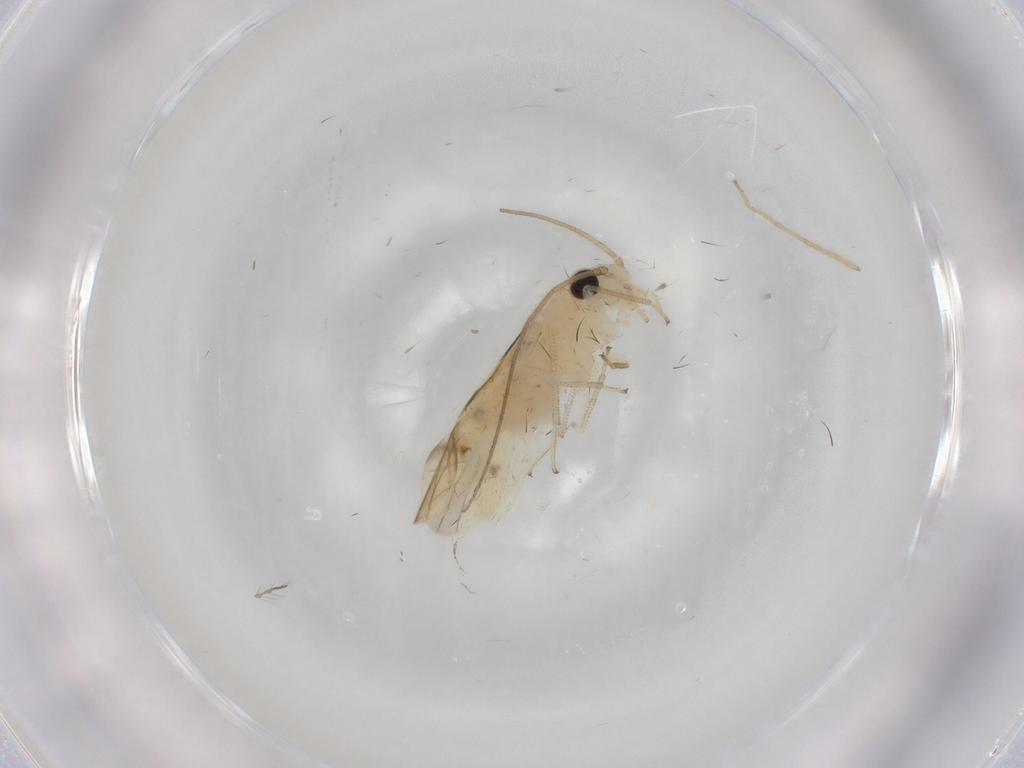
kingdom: Animalia
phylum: Arthropoda
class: Insecta
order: Psocodea
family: Caeciliusidae
